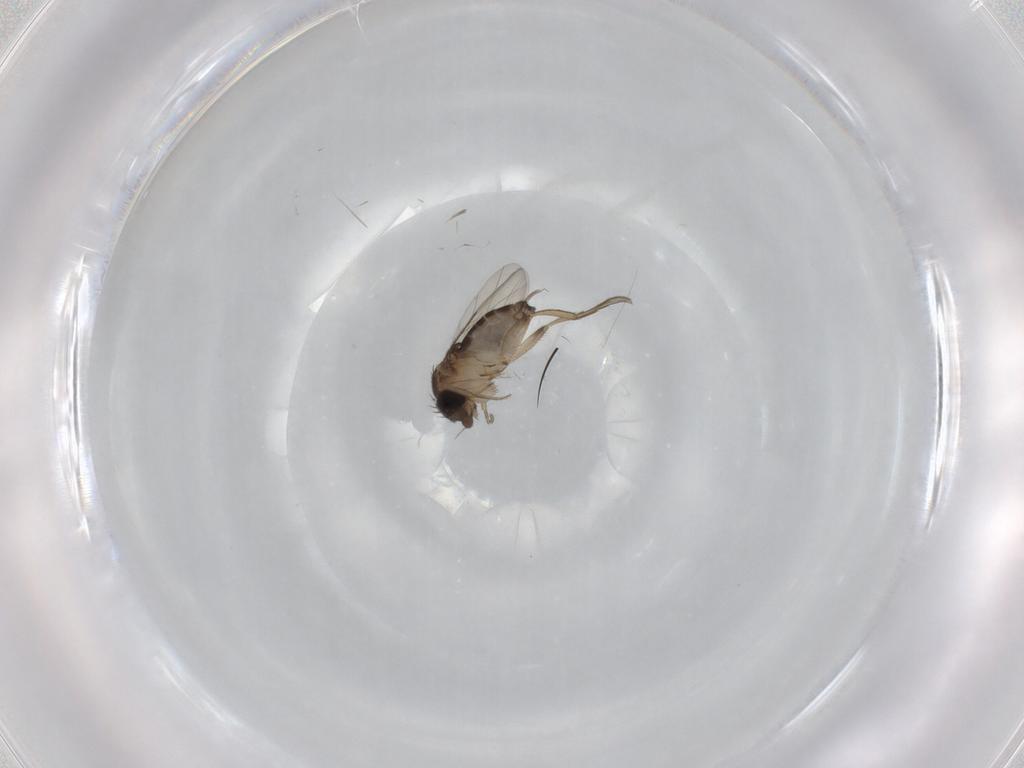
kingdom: Animalia
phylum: Arthropoda
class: Insecta
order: Diptera
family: Phoridae
